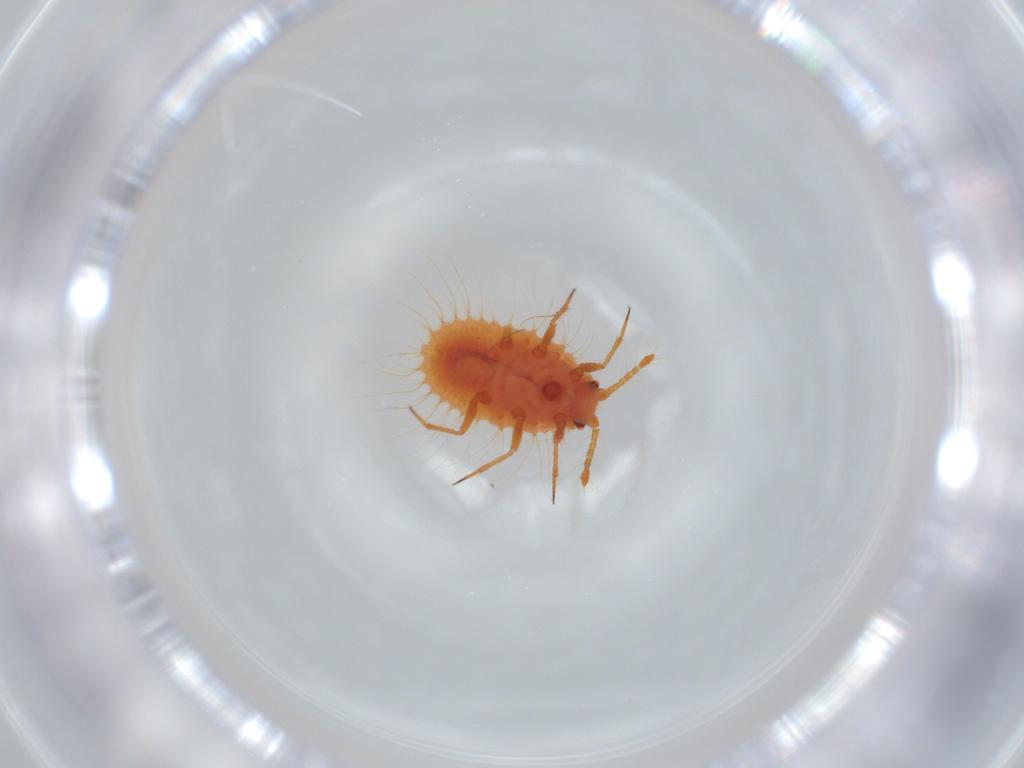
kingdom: Animalia
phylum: Arthropoda
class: Insecta
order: Hemiptera
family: Coccoidea_incertae_sedis
